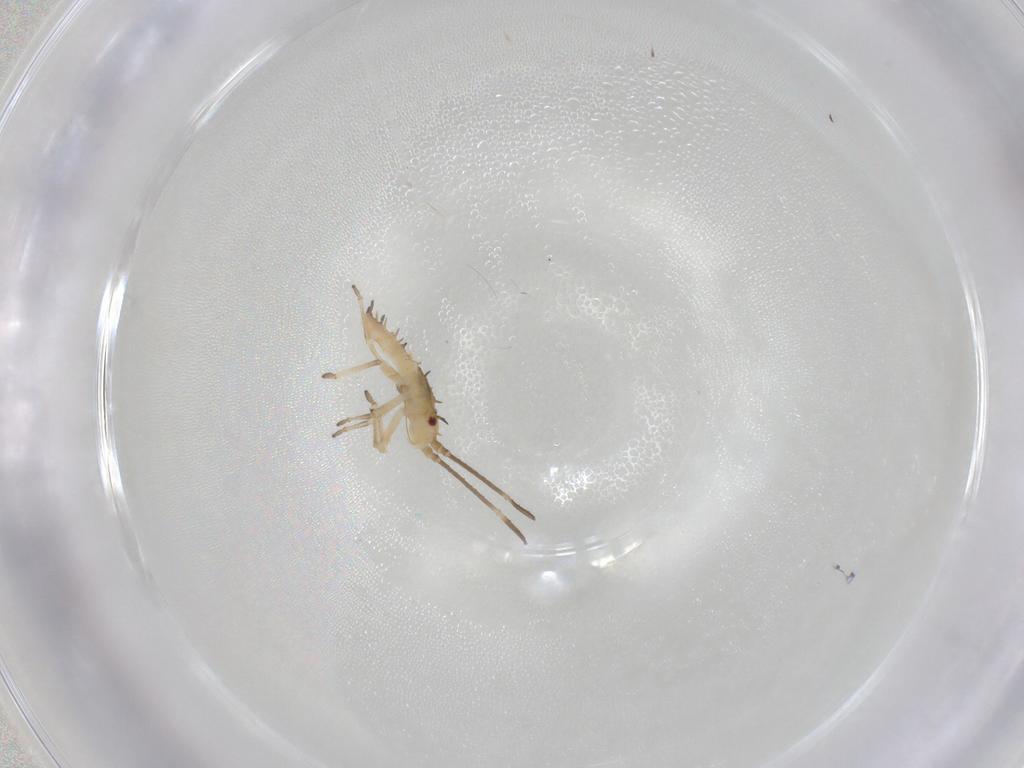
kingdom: Animalia
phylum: Arthropoda
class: Insecta
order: Hemiptera
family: Tingidae
